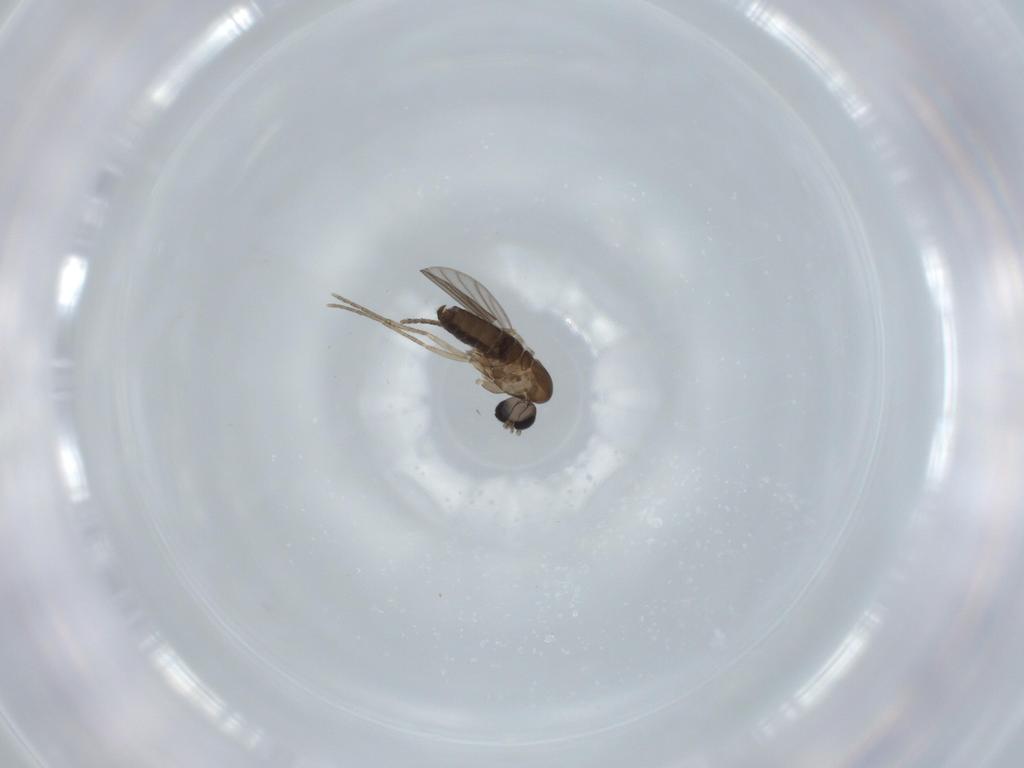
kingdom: Animalia
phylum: Arthropoda
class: Insecta
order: Diptera
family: Psychodidae
